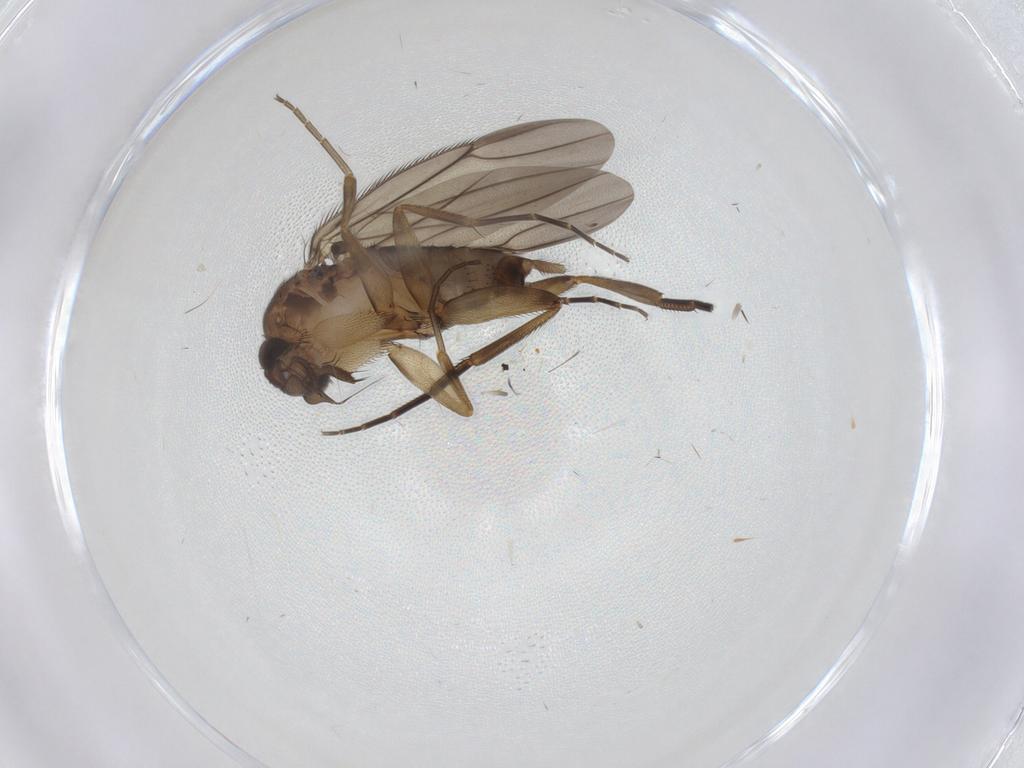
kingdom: Animalia
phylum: Arthropoda
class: Insecta
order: Diptera
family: Phoridae
